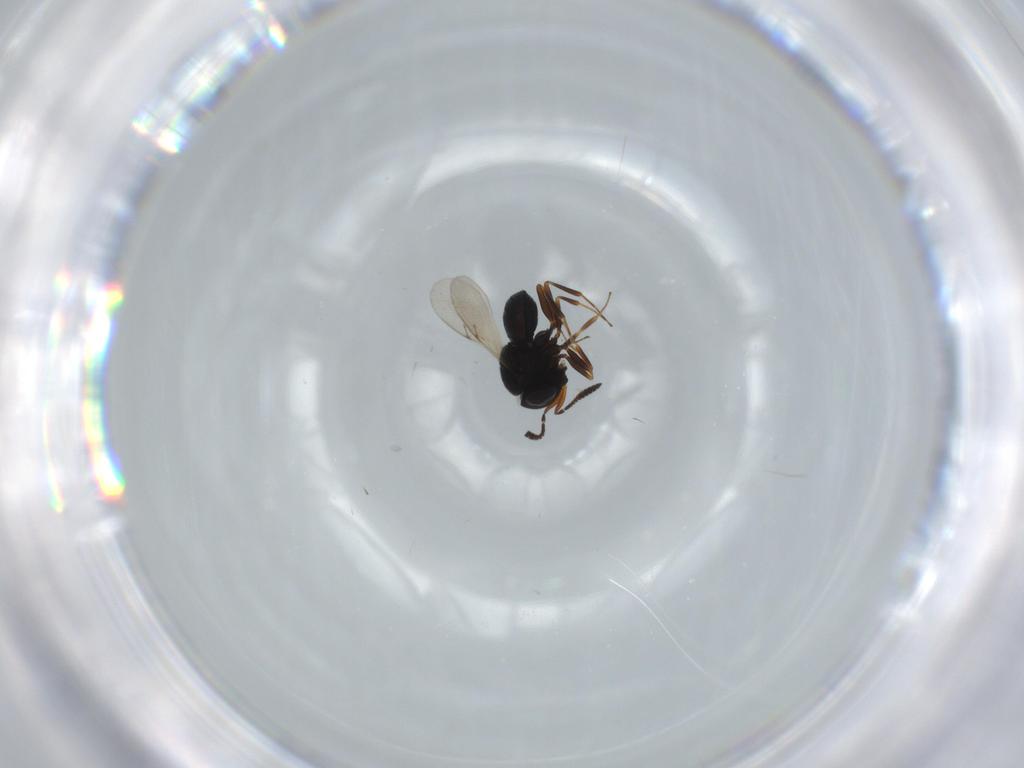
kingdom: Animalia
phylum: Arthropoda
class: Insecta
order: Hymenoptera
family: Scelionidae
